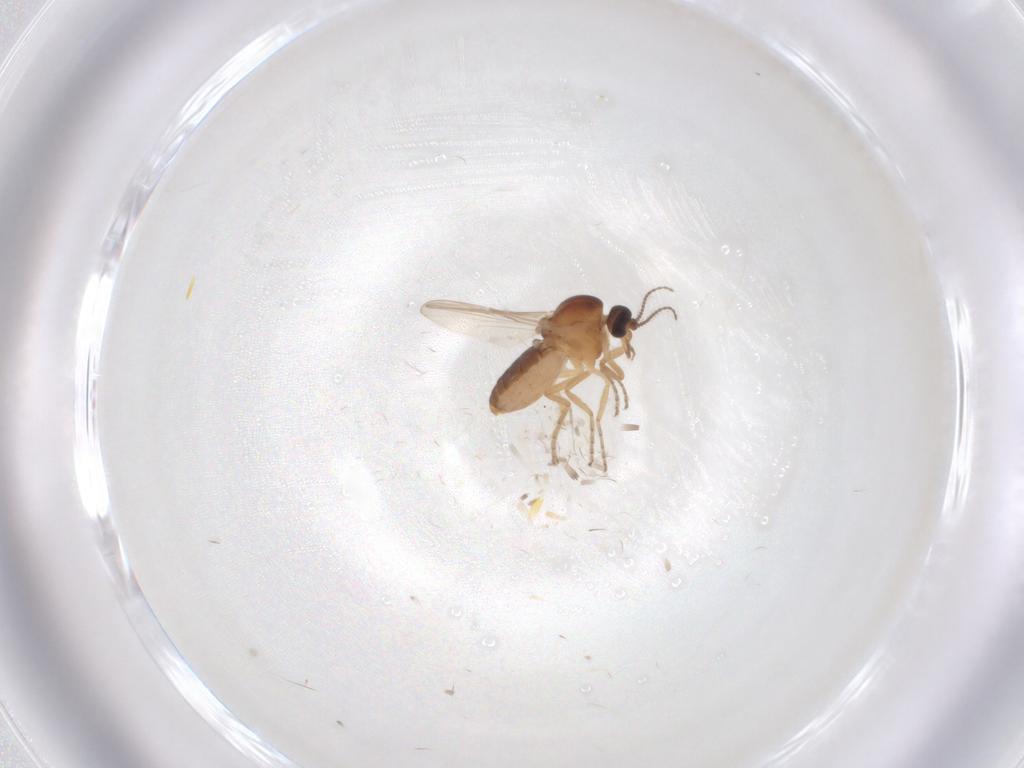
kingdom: Animalia
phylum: Arthropoda
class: Insecta
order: Diptera
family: Ceratopogonidae
